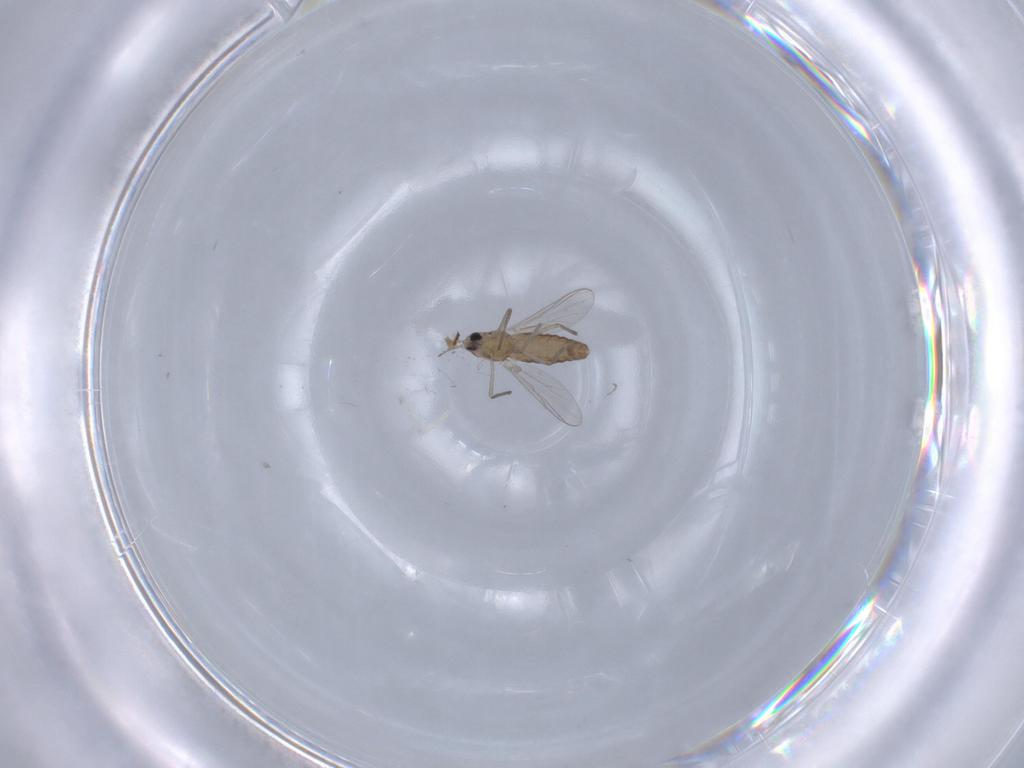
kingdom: Animalia
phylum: Arthropoda
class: Insecta
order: Diptera
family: Chironomidae
